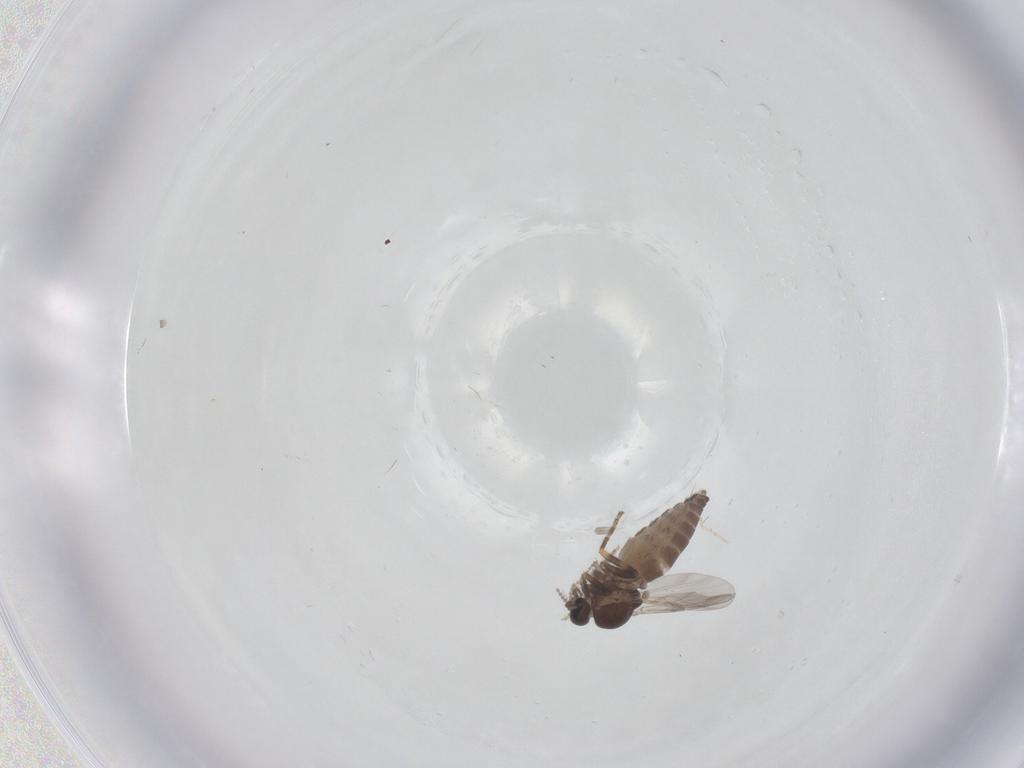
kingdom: Animalia
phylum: Arthropoda
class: Insecta
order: Diptera
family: Ceratopogonidae
